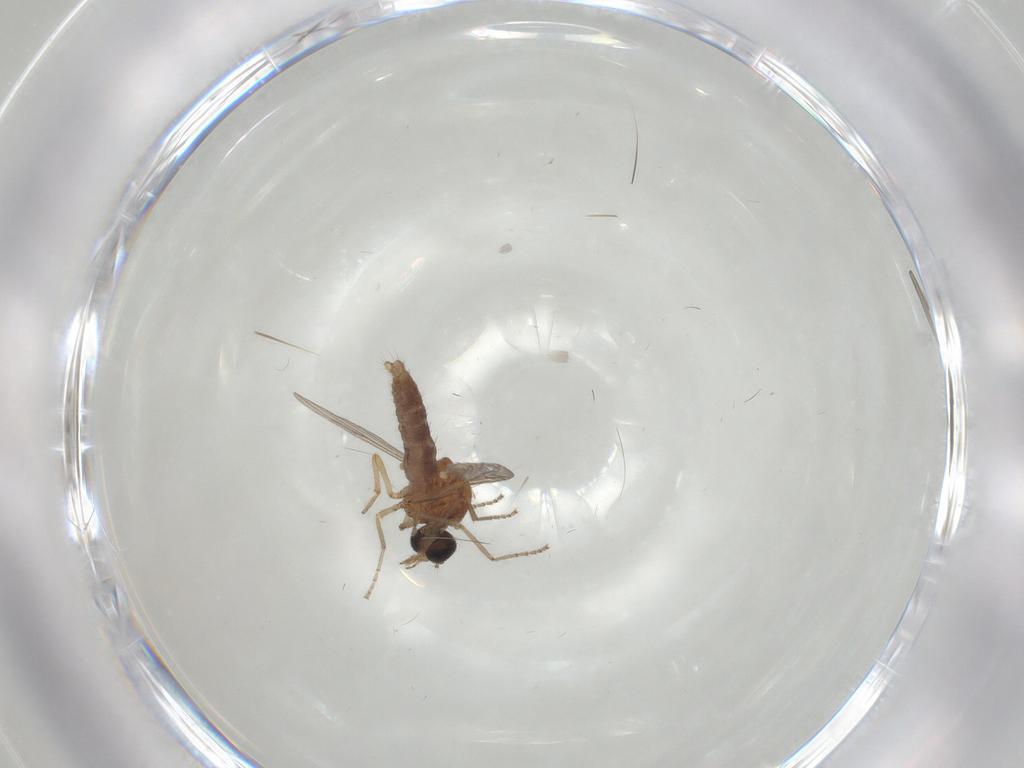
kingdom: Animalia
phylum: Arthropoda
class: Insecta
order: Diptera
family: Ceratopogonidae
